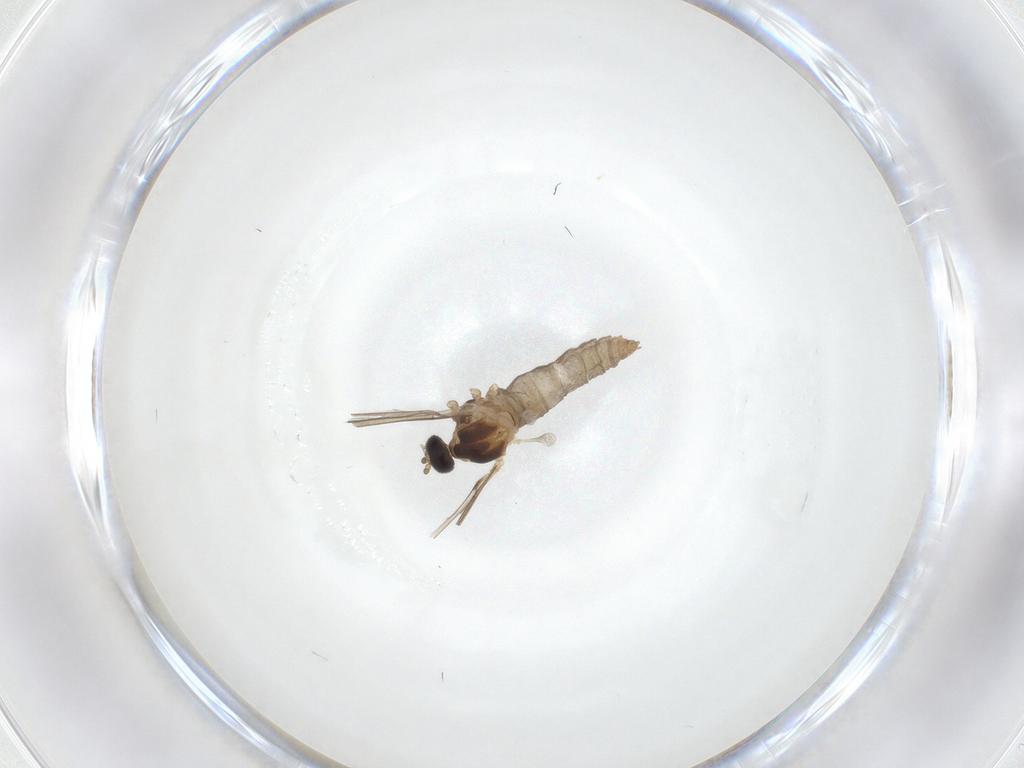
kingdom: Animalia
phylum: Arthropoda
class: Insecta
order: Diptera
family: Cecidomyiidae
